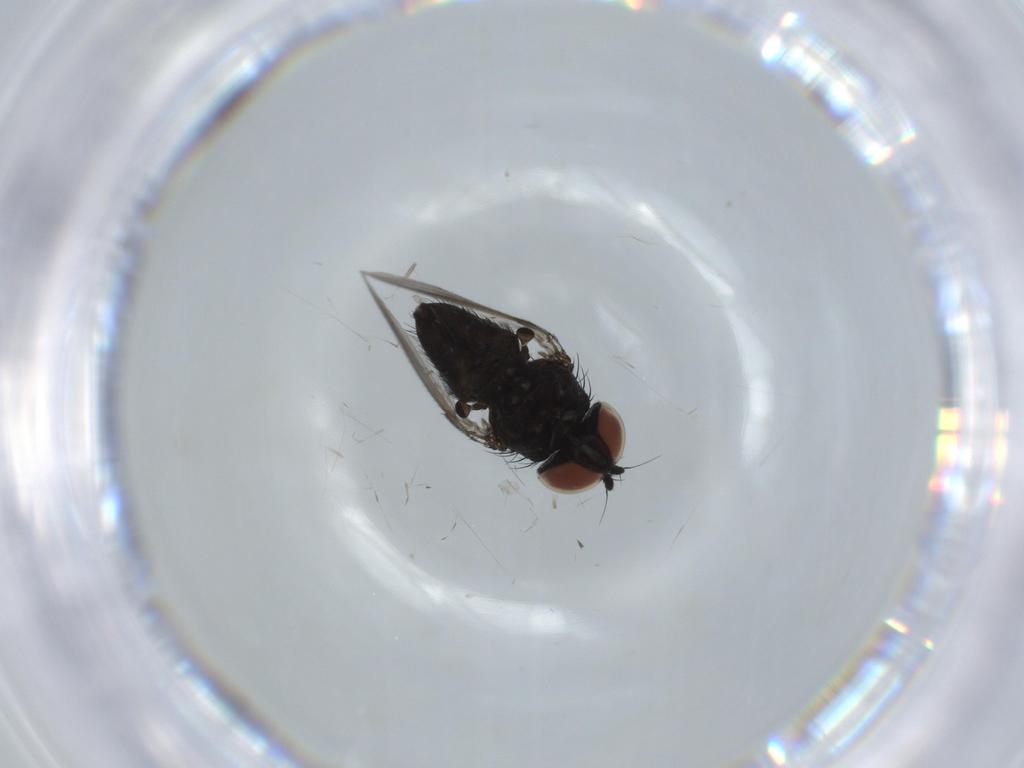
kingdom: Animalia
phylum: Arthropoda
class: Insecta
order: Diptera
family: Milichiidae
